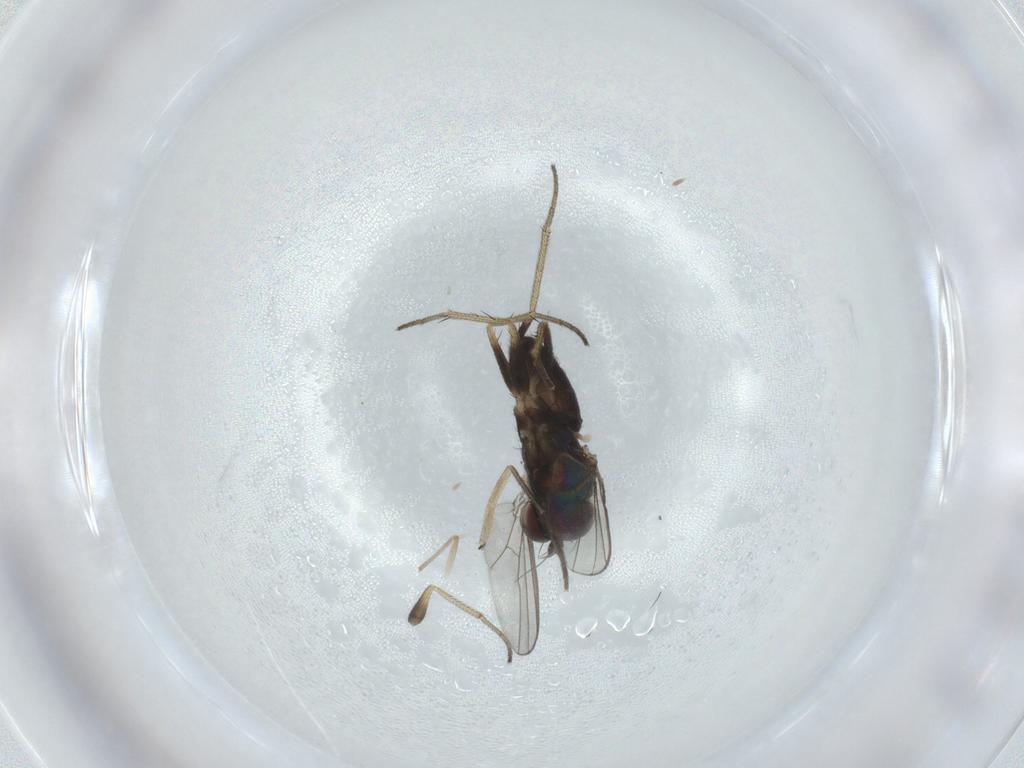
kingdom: Animalia
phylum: Arthropoda
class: Insecta
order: Diptera
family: Dolichopodidae
